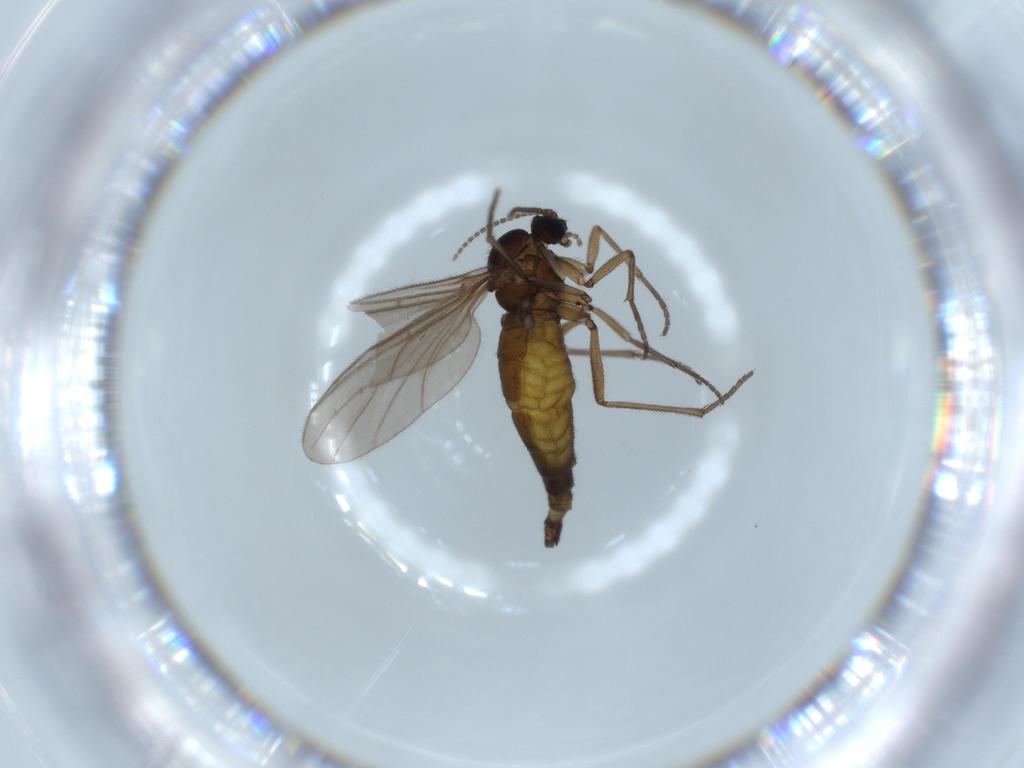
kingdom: Animalia
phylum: Arthropoda
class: Insecta
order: Diptera
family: Sciaridae
